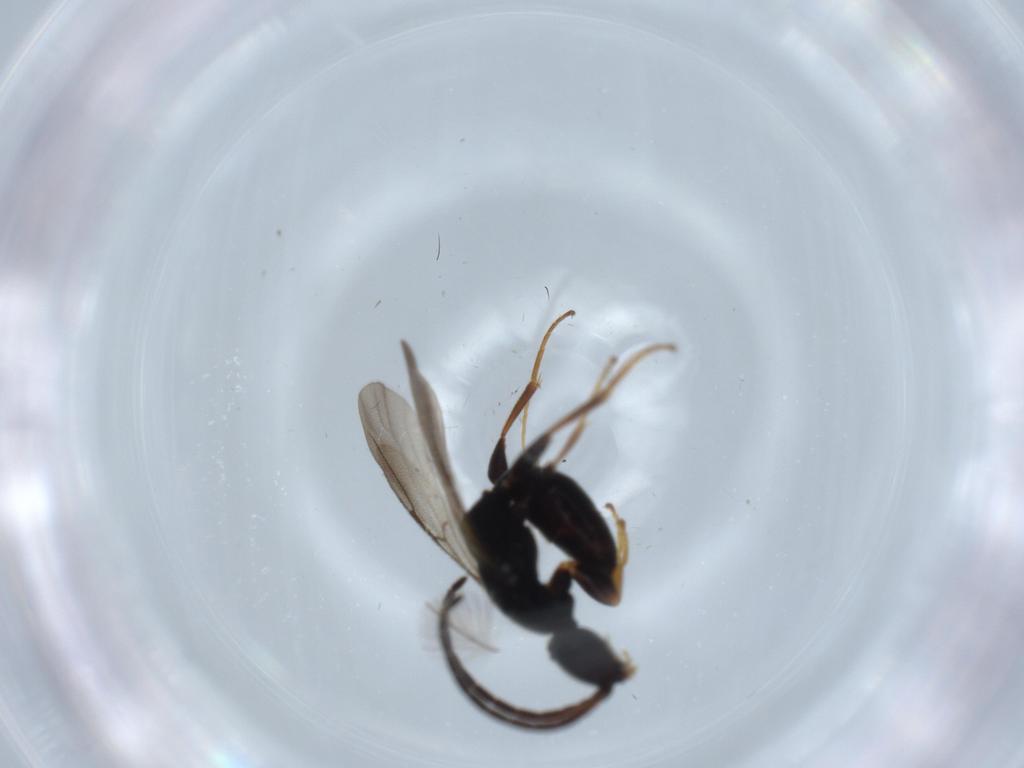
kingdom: Animalia
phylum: Arthropoda
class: Insecta
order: Hymenoptera
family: Bethylidae
